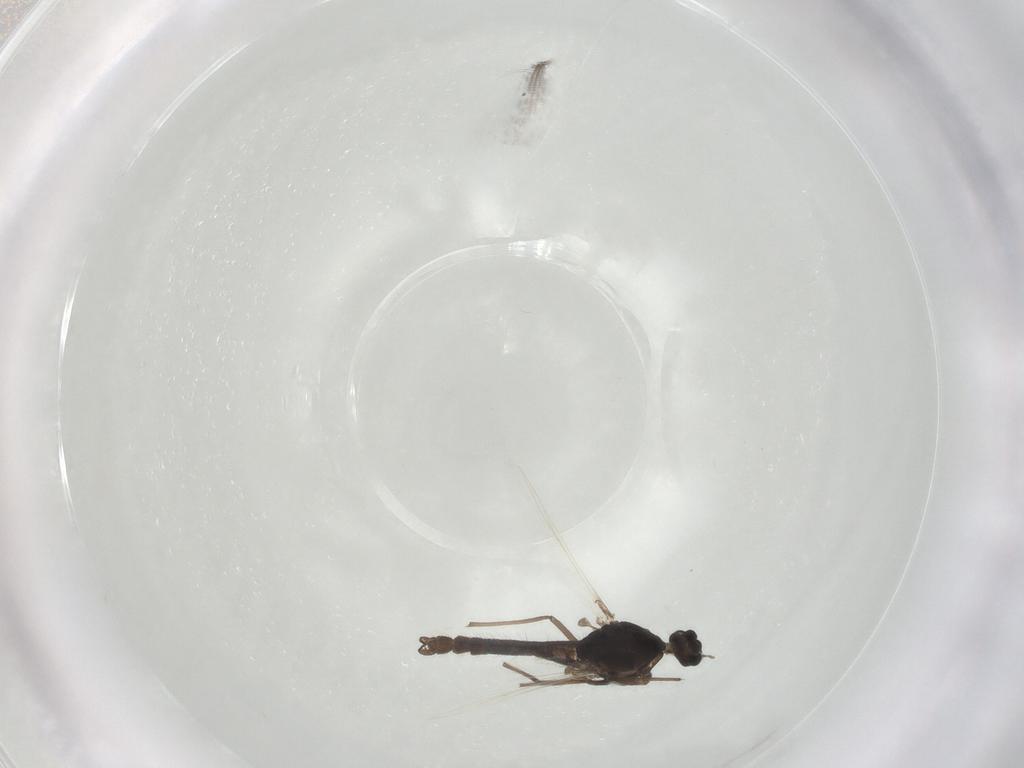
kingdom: Animalia
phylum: Arthropoda
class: Insecta
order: Diptera
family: Chironomidae
